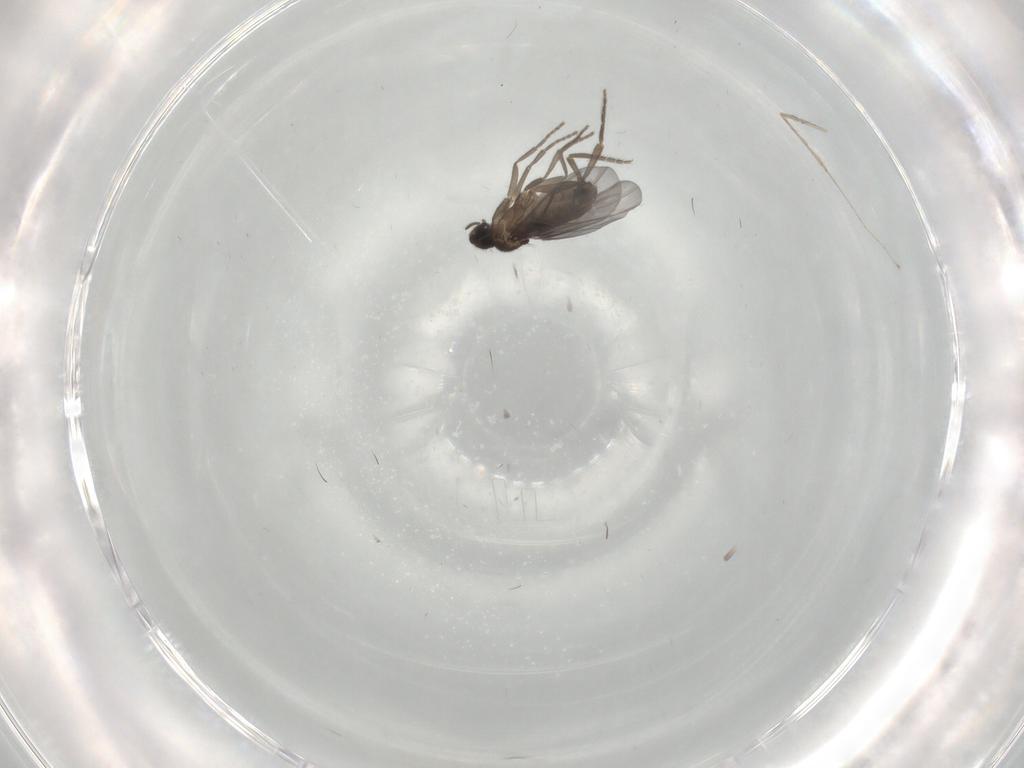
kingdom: Animalia
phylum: Arthropoda
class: Insecta
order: Diptera
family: Phoridae
